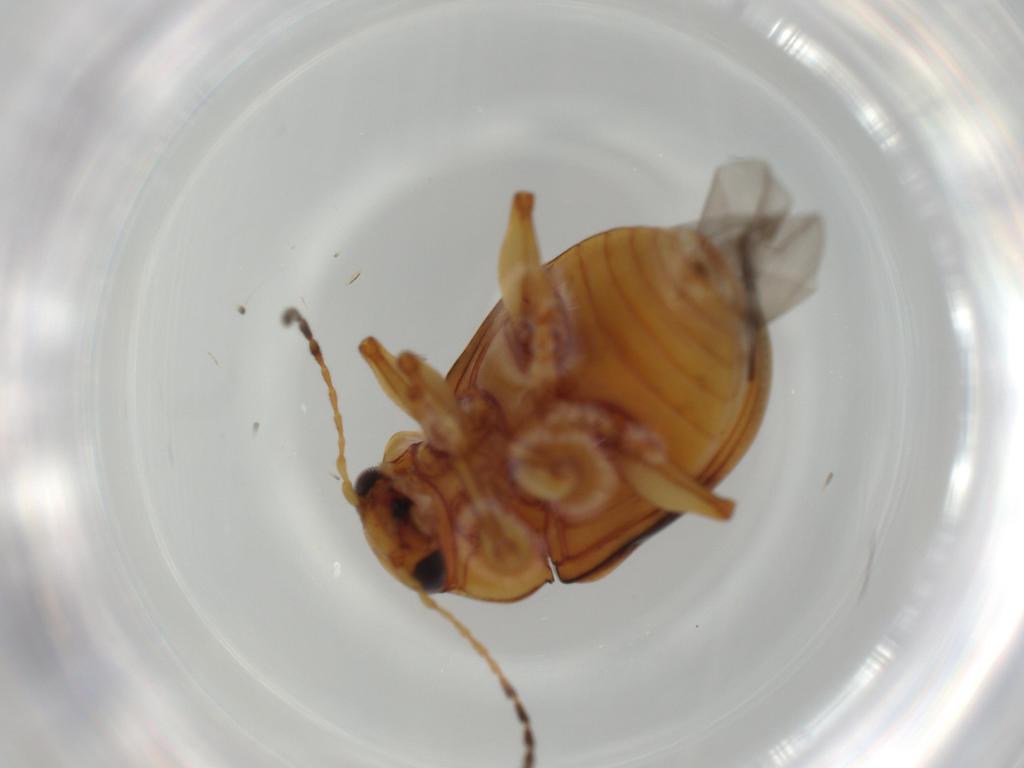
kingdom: Animalia
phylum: Arthropoda
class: Insecta
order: Coleoptera
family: Chrysomelidae
